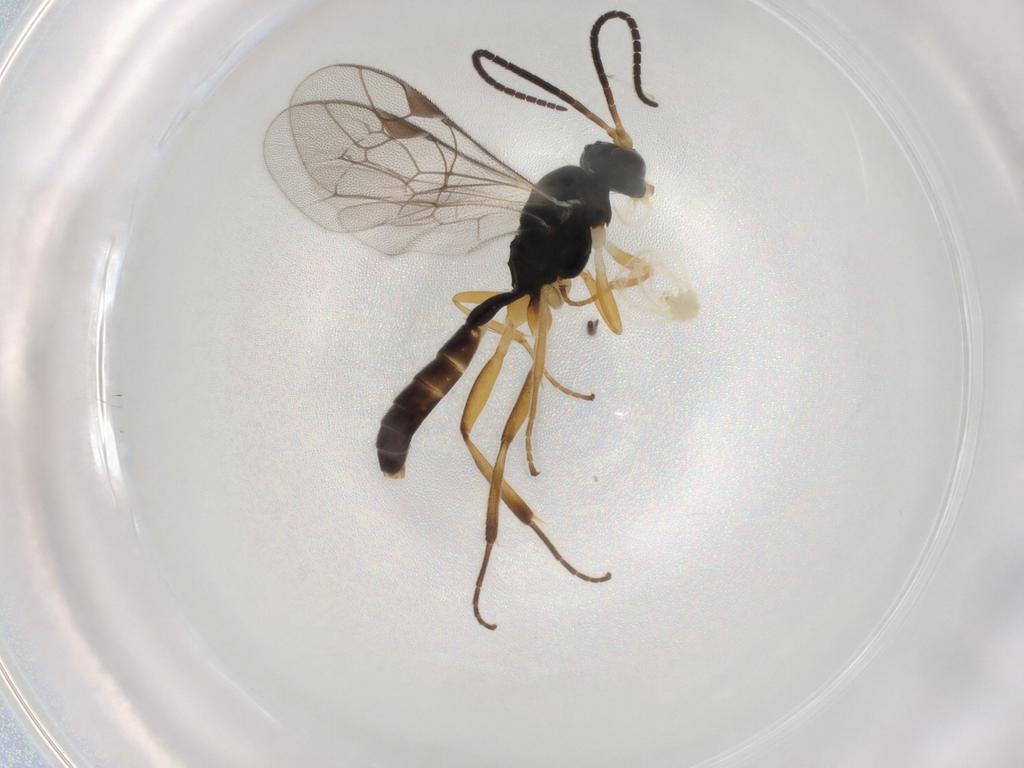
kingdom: Animalia
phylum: Arthropoda
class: Insecta
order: Hymenoptera
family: Ichneumonidae
